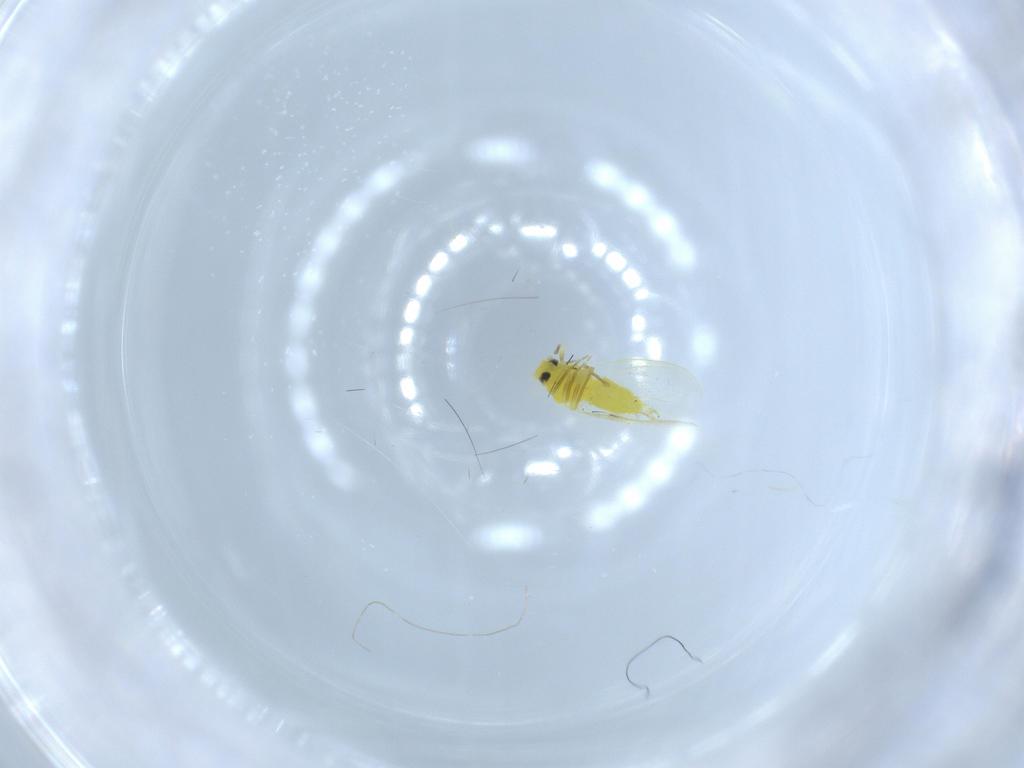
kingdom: Animalia
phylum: Arthropoda
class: Insecta
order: Hemiptera
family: Aleyrodidae
